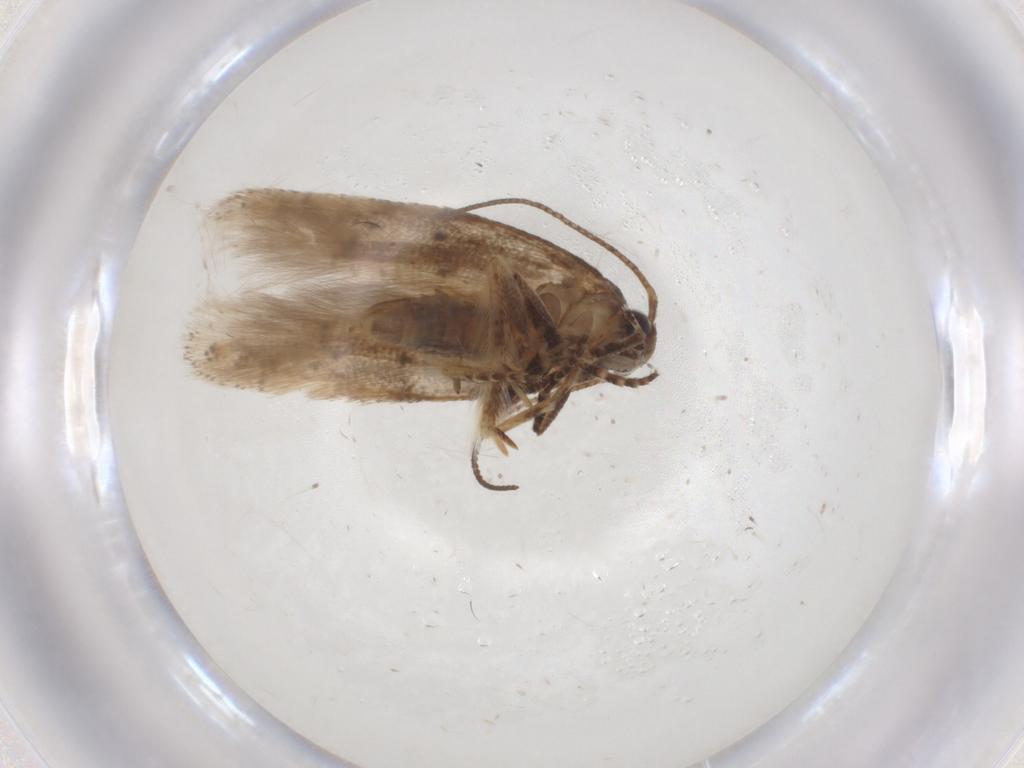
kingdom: Animalia
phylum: Arthropoda
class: Insecta
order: Lepidoptera
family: Gelechiidae
